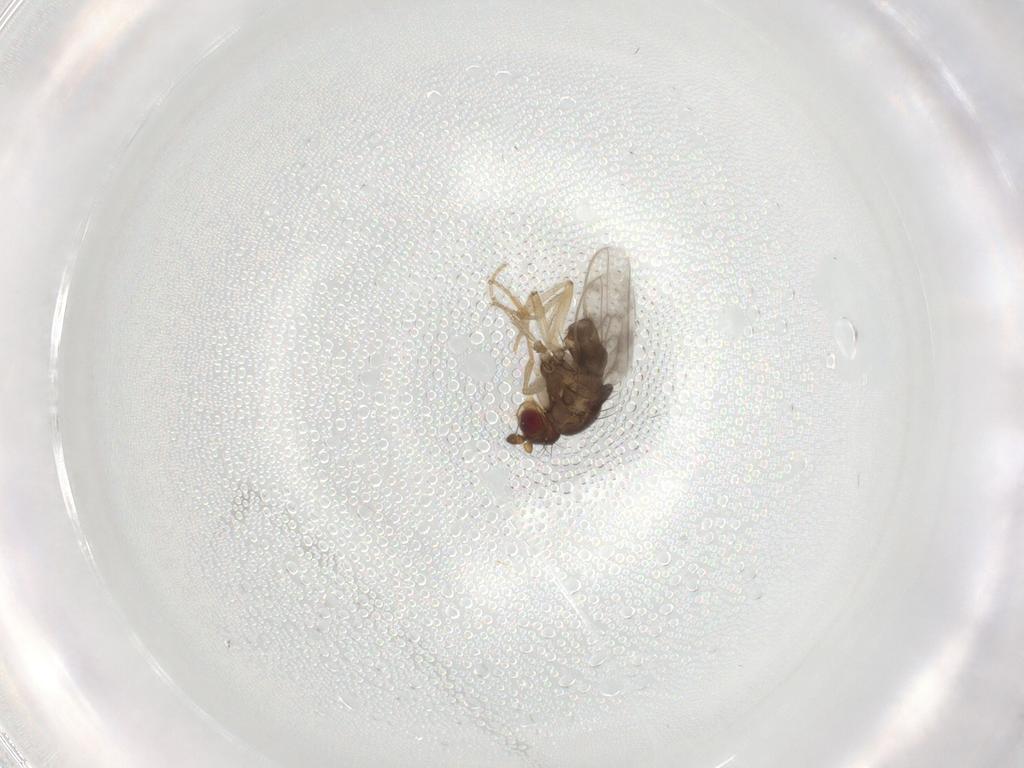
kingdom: Animalia
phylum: Arthropoda
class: Insecta
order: Diptera
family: Sphaeroceridae
